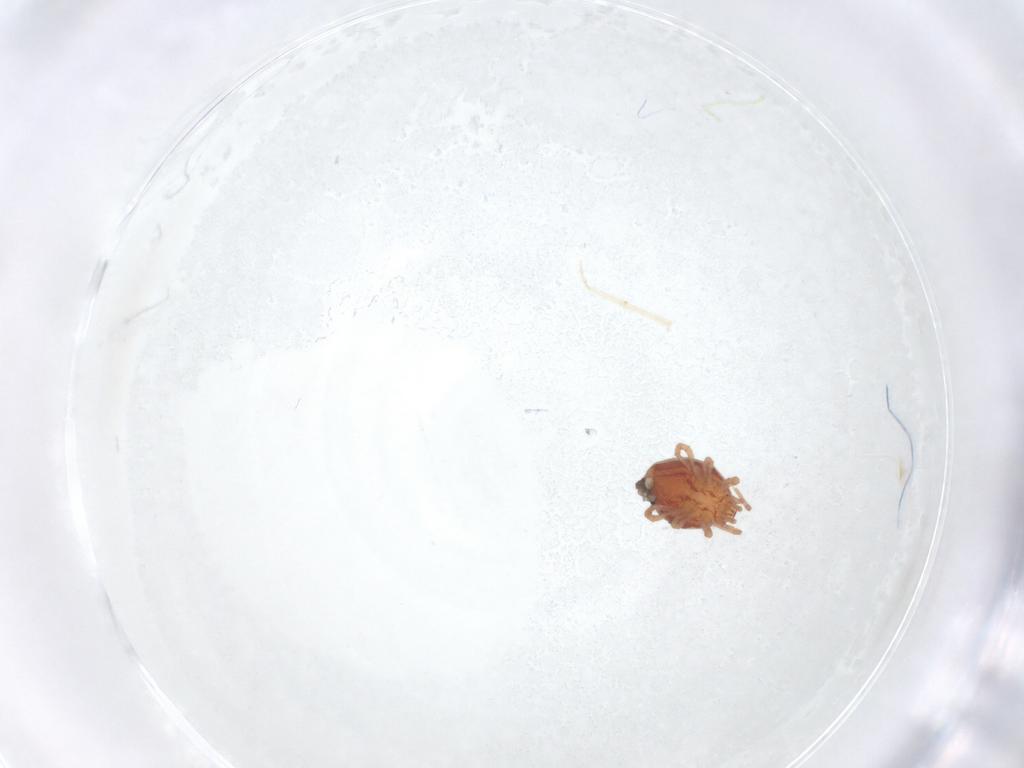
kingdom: Animalia
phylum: Arthropoda
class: Arachnida
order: Mesostigmata
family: Parasitidae
